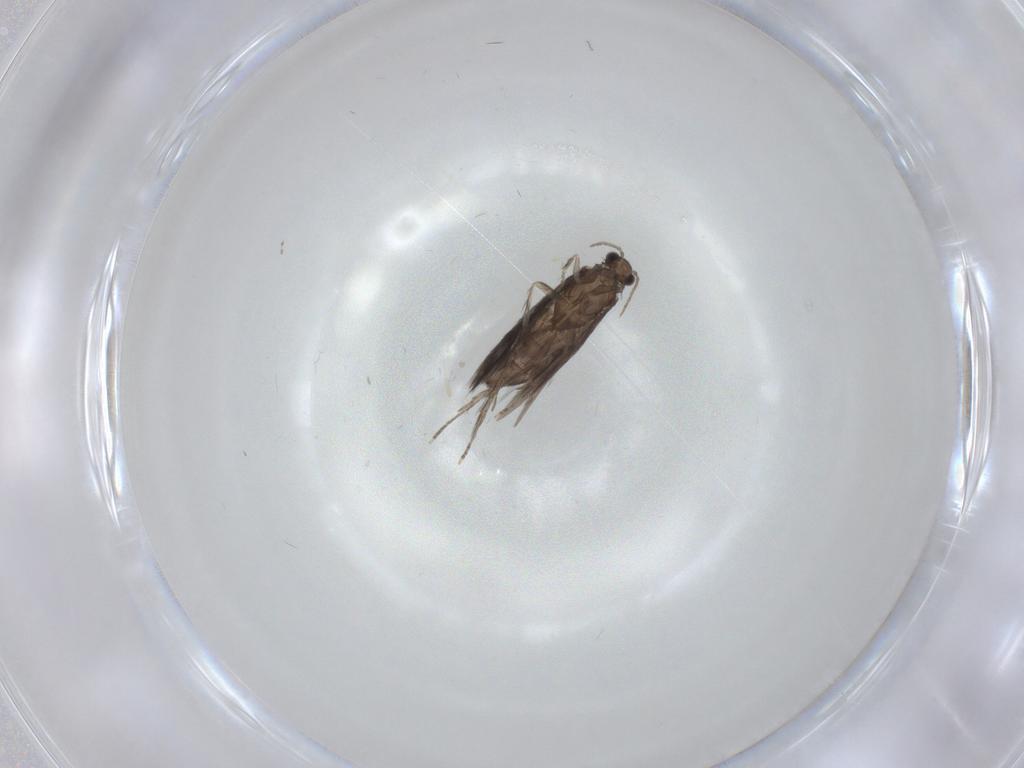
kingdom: Animalia
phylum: Arthropoda
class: Insecta
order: Trichoptera
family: Hydroptilidae
